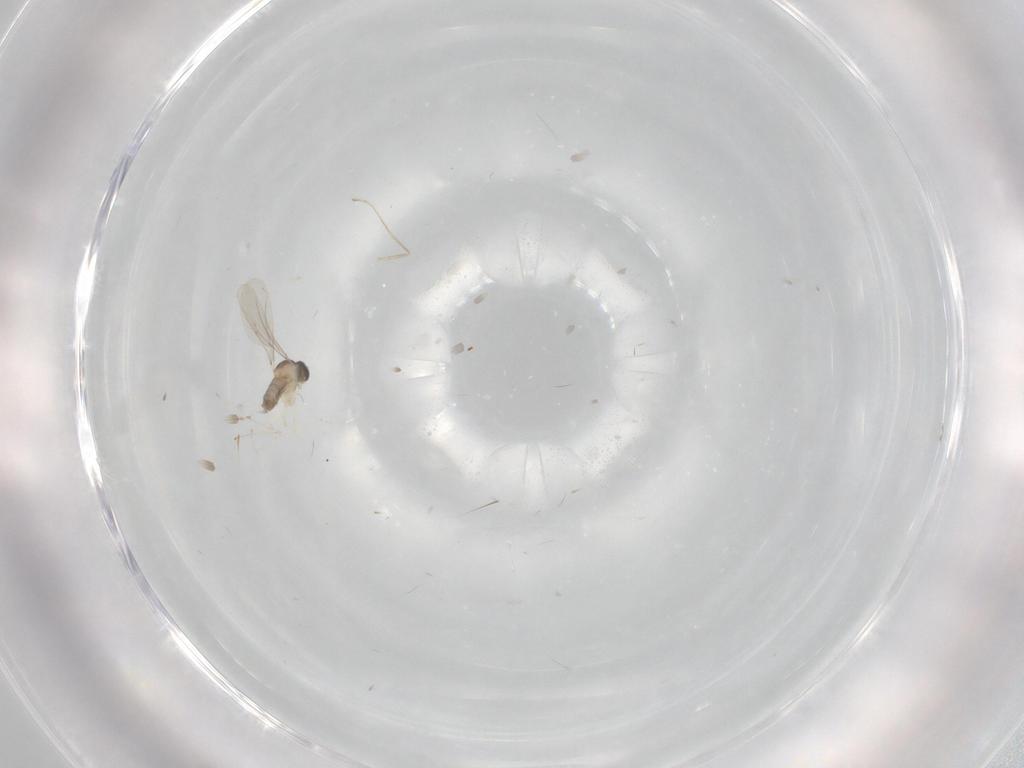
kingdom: Animalia
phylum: Arthropoda
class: Insecta
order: Diptera
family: Cecidomyiidae
